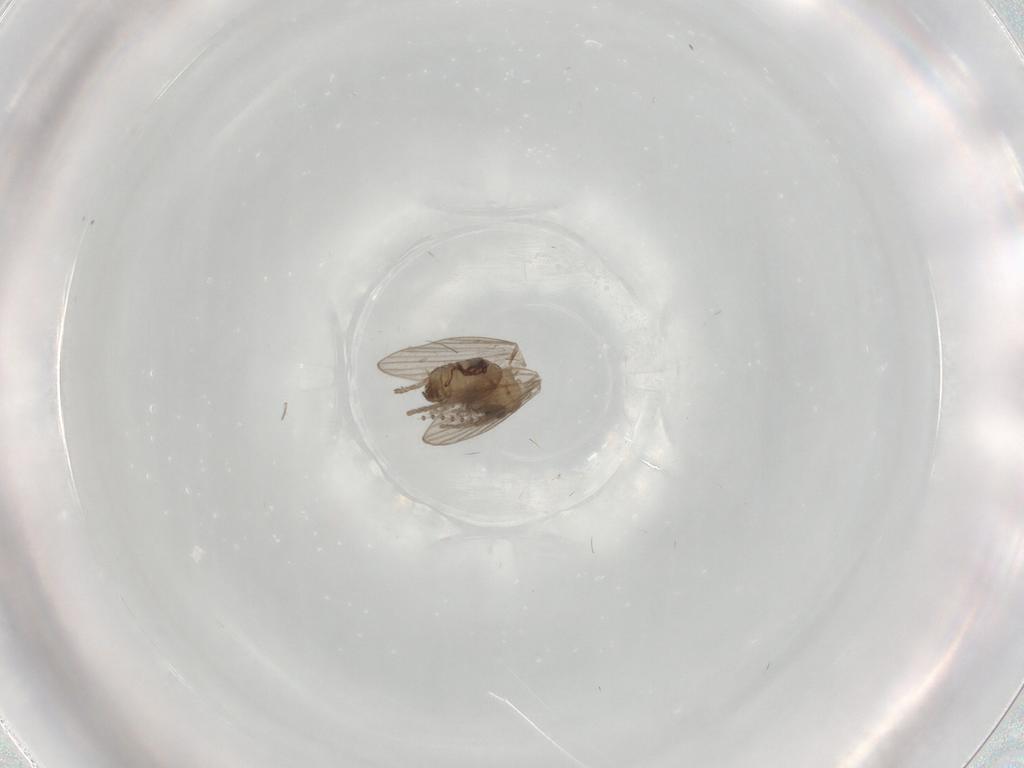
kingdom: Animalia
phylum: Arthropoda
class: Insecta
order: Diptera
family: Psychodidae
